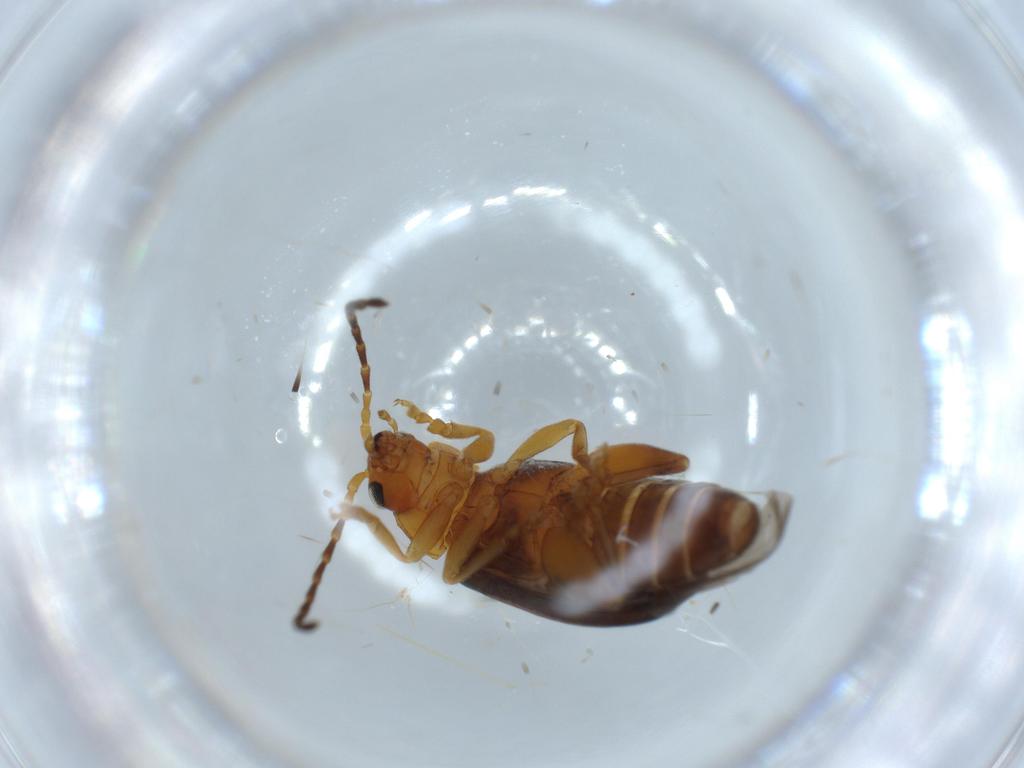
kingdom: Animalia
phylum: Arthropoda
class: Insecta
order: Coleoptera
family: Chrysomelidae
